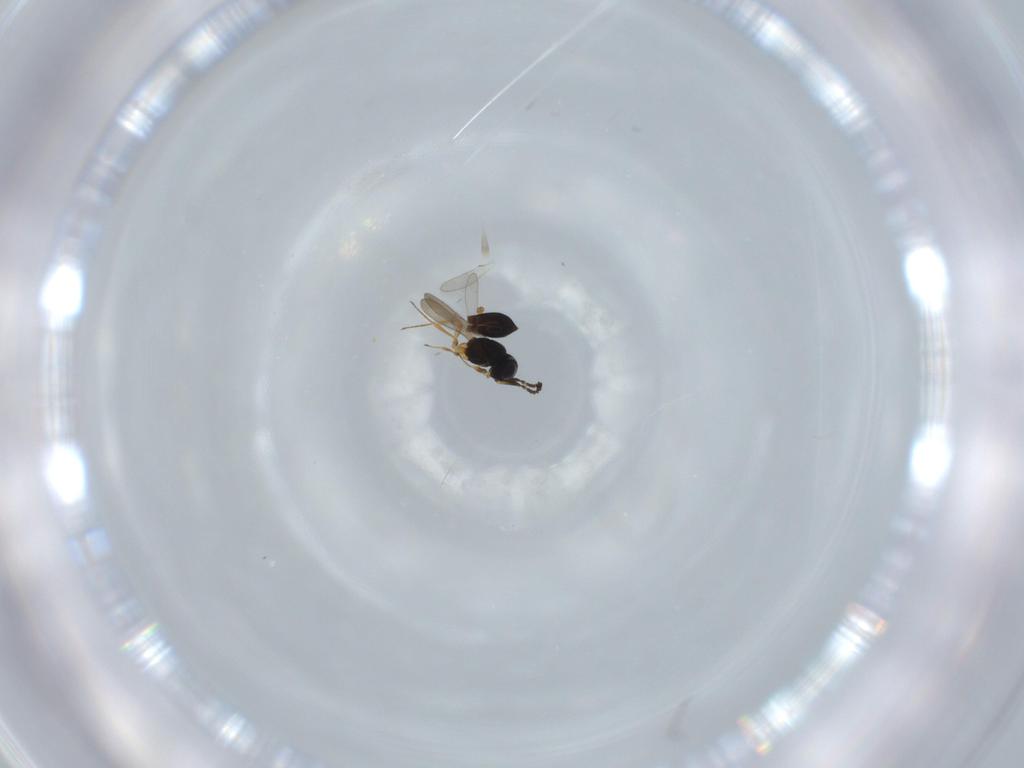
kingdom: Animalia
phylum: Arthropoda
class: Insecta
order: Hymenoptera
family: Scelionidae
